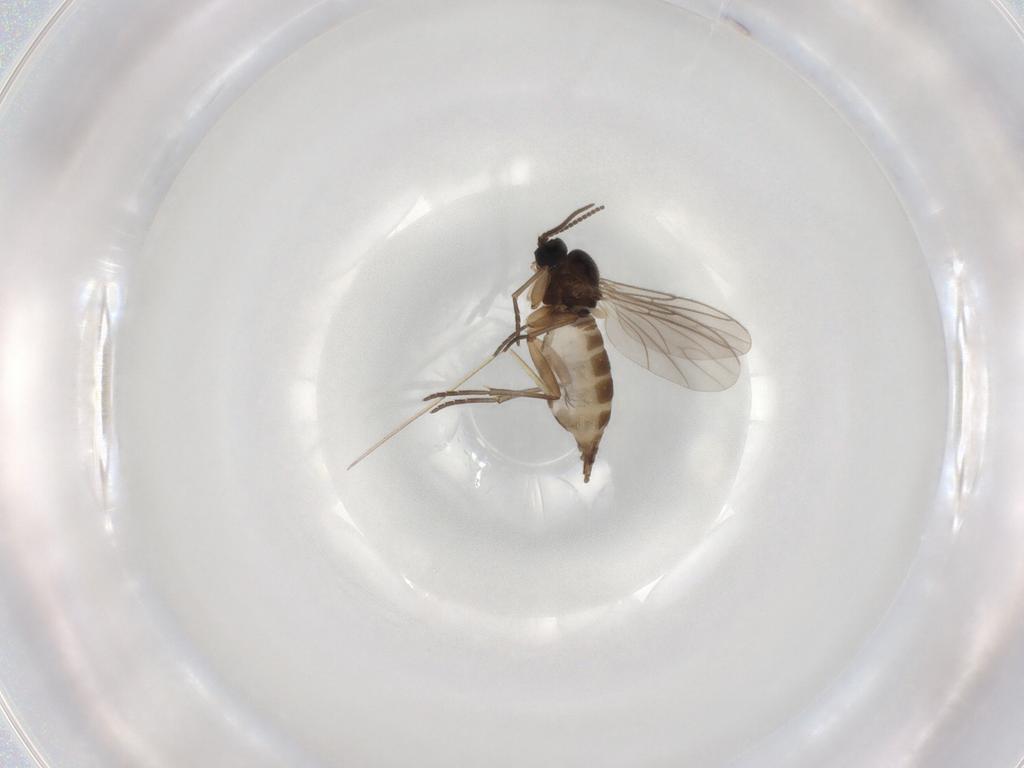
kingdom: Animalia
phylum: Arthropoda
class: Insecta
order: Diptera
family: Sciaridae
